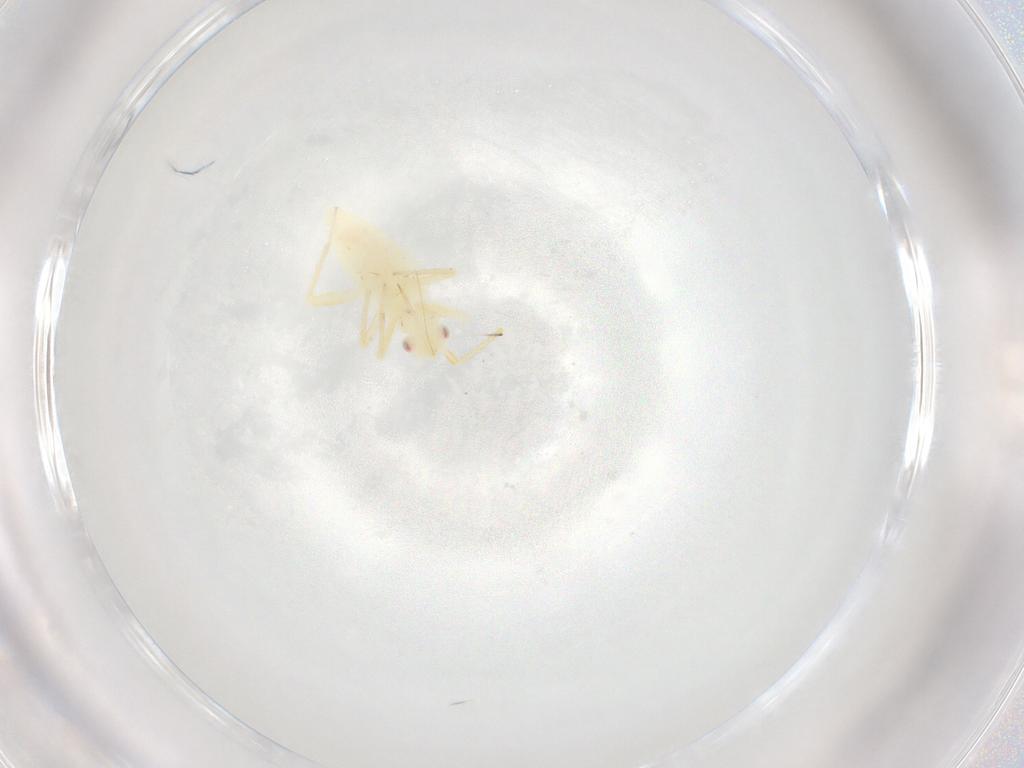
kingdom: Animalia
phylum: Arthropoda
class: Insecta
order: Hemiptera
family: Miridae
